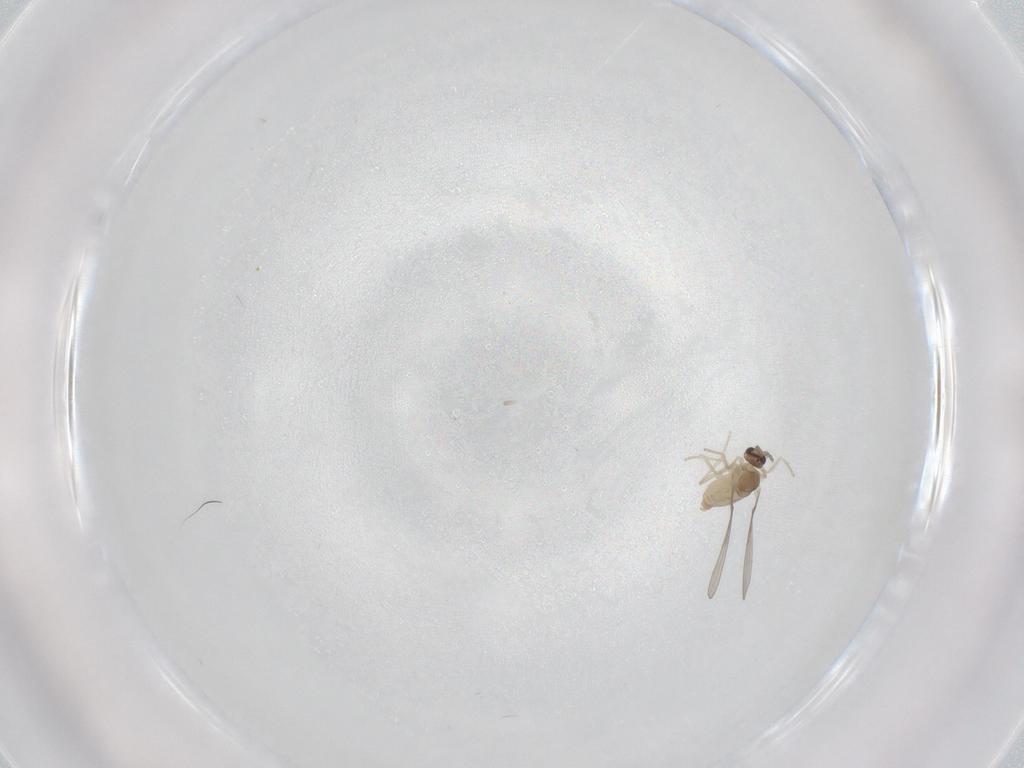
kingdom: Animalia
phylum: Arthropoda
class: Insecta
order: Diptera
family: Cecidomyiidae
